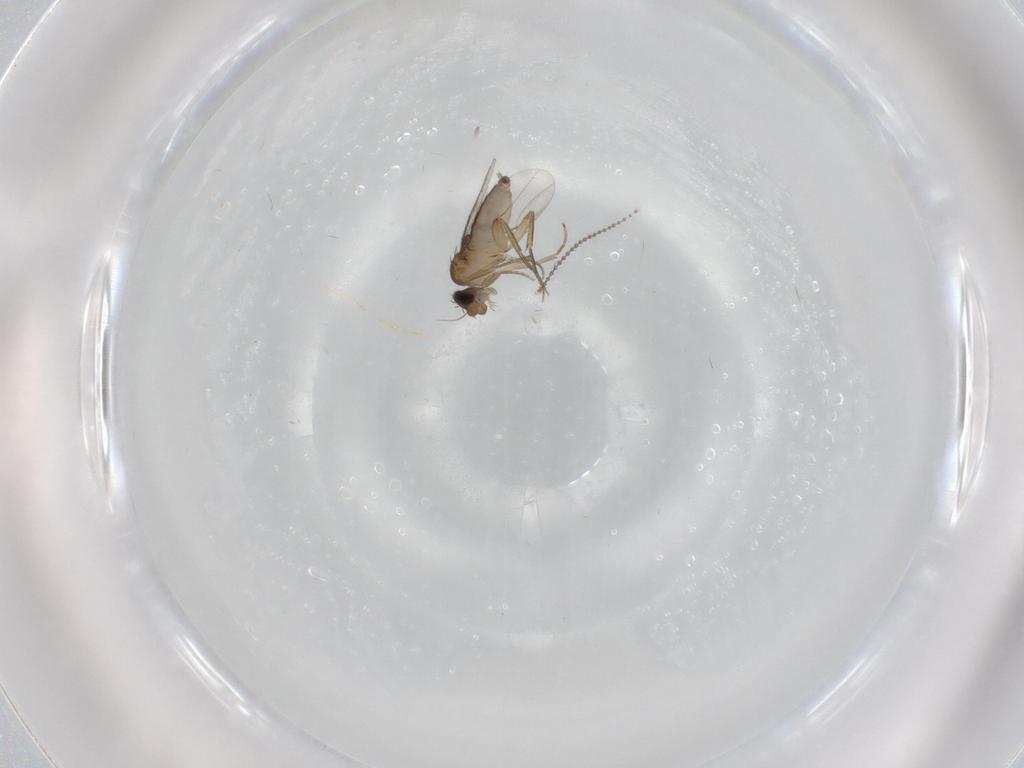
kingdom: Animalia
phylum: Arthropoda
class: Insecta
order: Diptera
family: Phoridae
